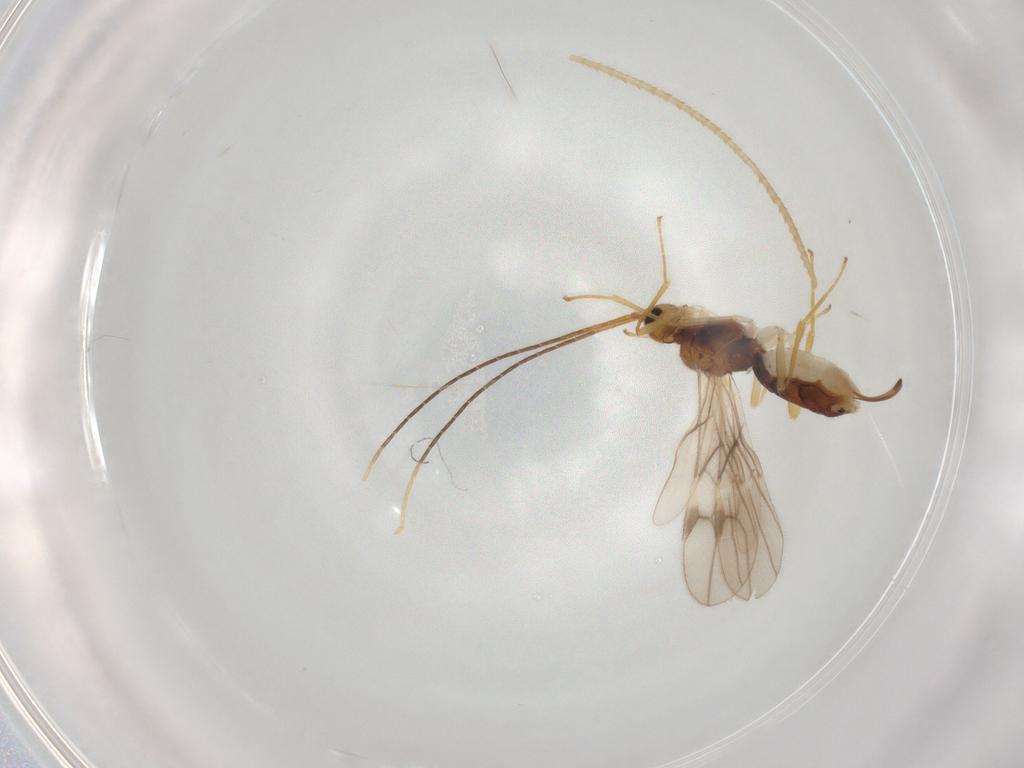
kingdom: Animalia
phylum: Arthropoda
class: Insecta
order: Hymenoptera
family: Braconidae
